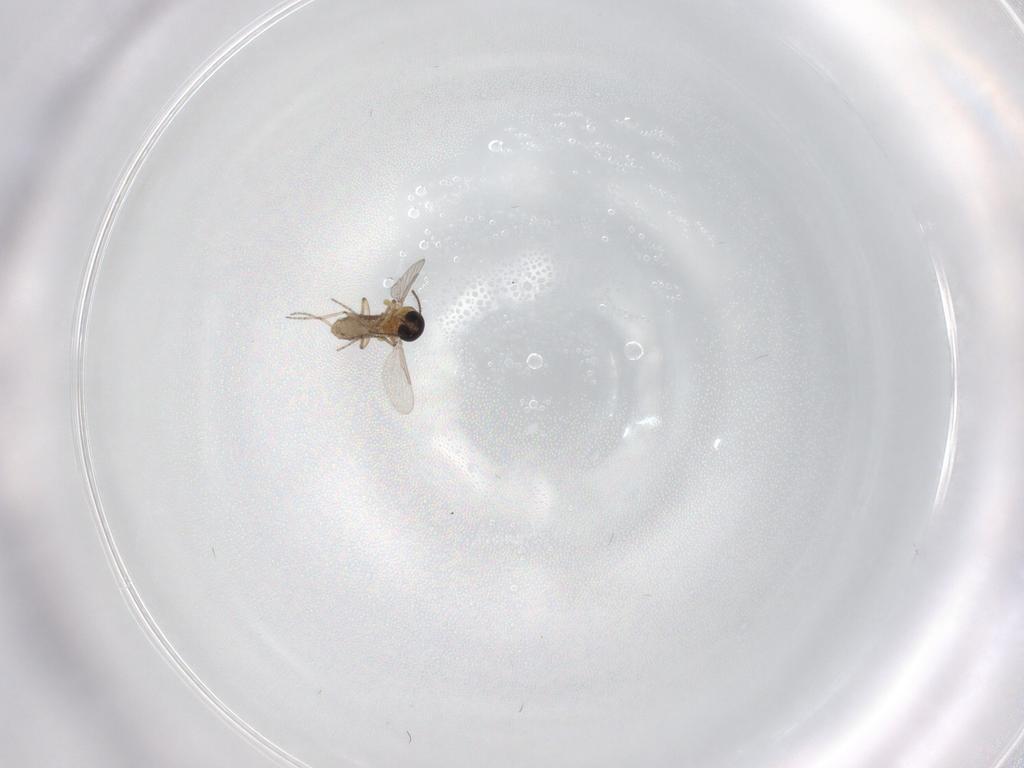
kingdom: Animalia
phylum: Arthropoda
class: Insecta
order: Diptera
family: Ceratopogonidae
